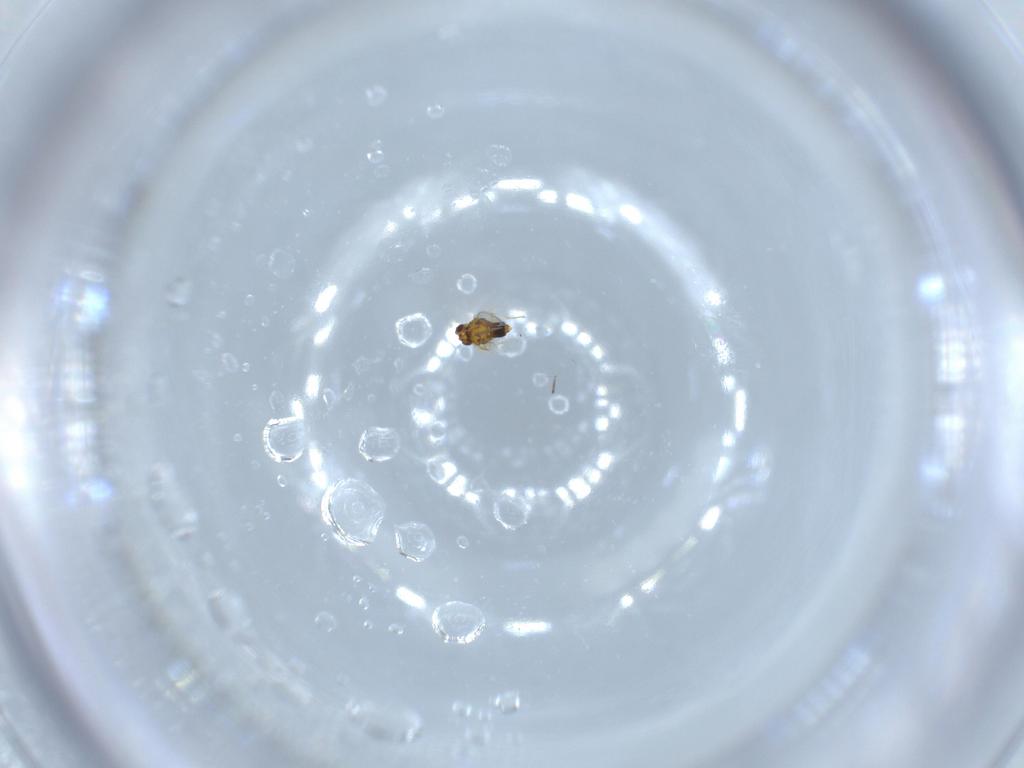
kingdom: Animalia
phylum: Arthropoda
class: Insecta
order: Hymenoptera
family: Aphelinidae
